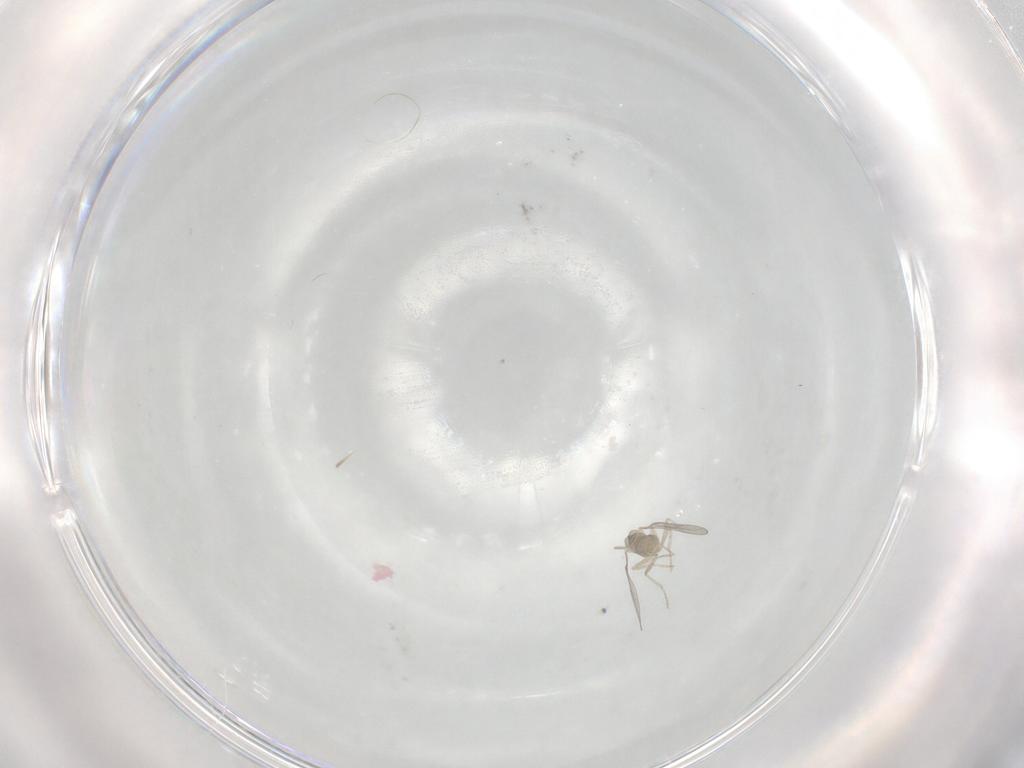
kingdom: Animalia
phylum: Arthropoda
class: Insecta
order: Diptera
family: Cecidomyiidae
